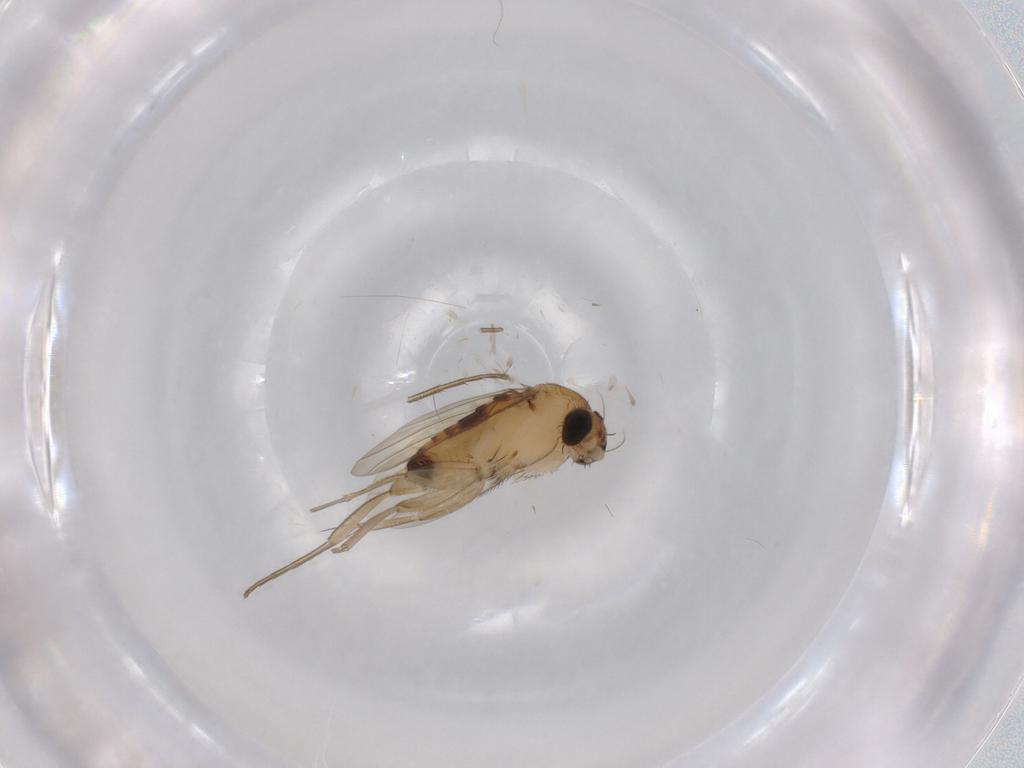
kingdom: Animalia
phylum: Arthropoda
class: Insecta
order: Diptera
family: Phoridae
